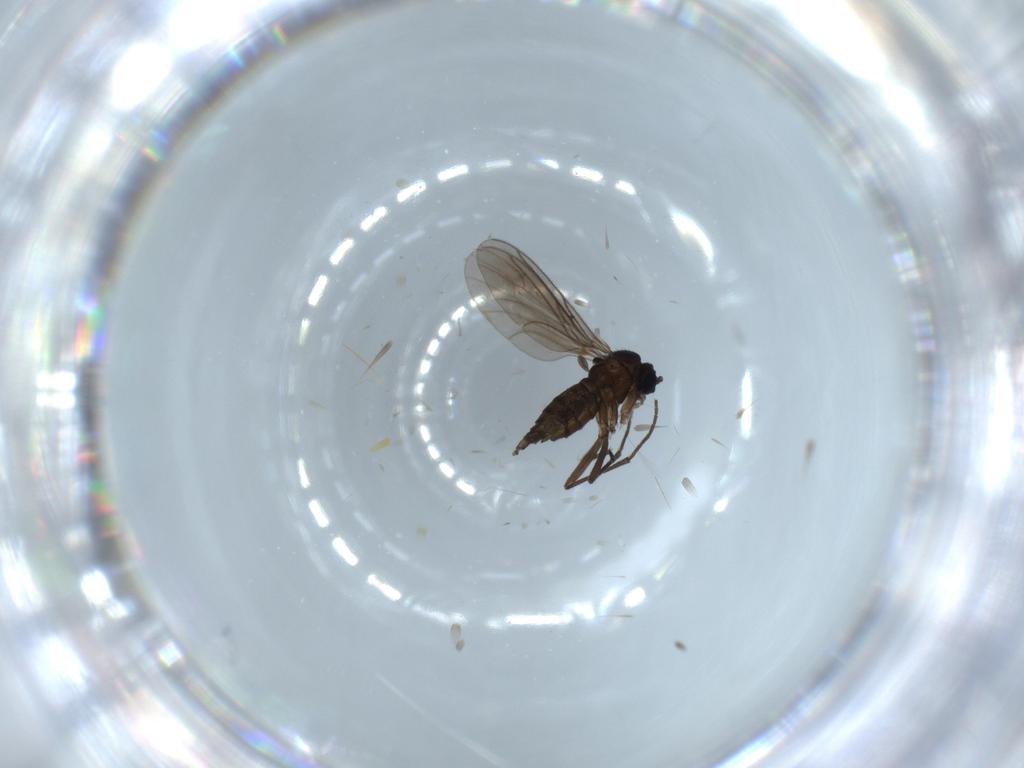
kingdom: Animalia
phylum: Arthropoda
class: Insecta
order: Diptera
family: Sciaridae
